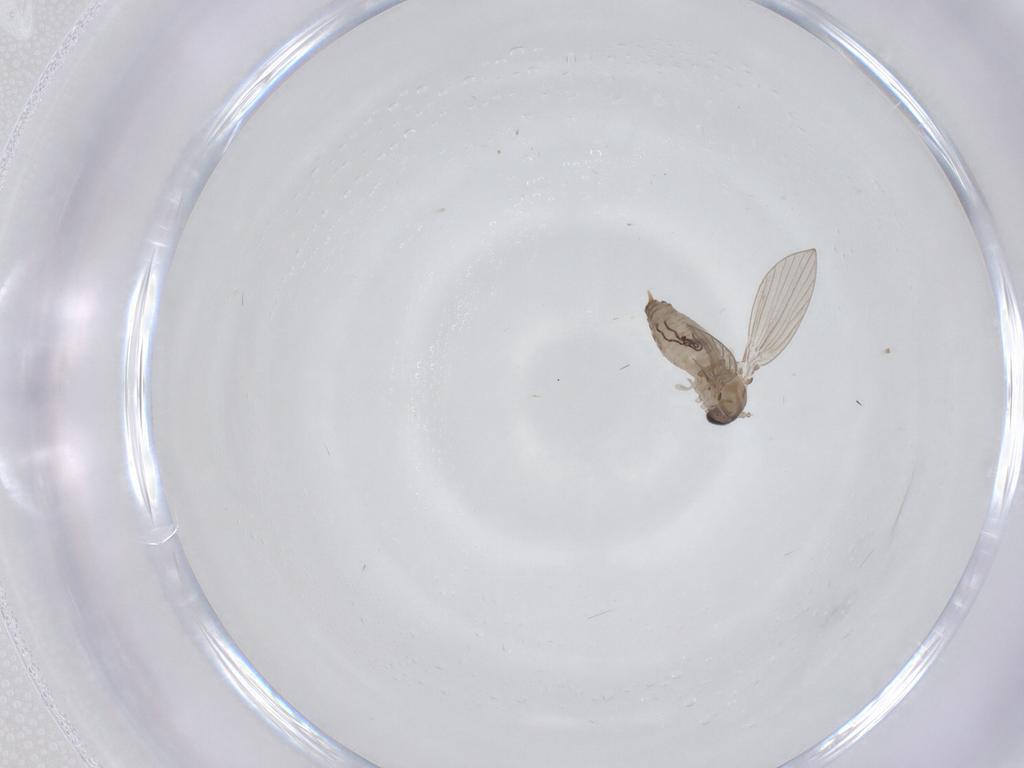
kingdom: Animalia
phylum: Arthropoda
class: Insecta
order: Diptera
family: Psychodidae
